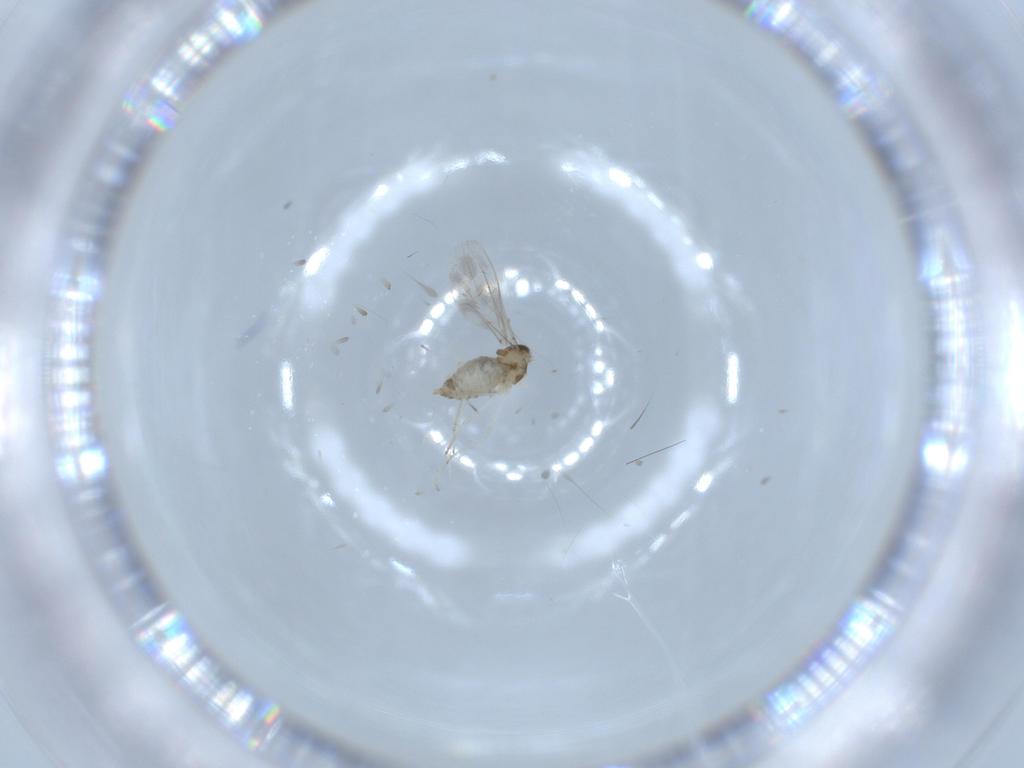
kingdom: Animalia
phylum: Arthropoda
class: Insecta
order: Diptera
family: Cecidomyiidae
